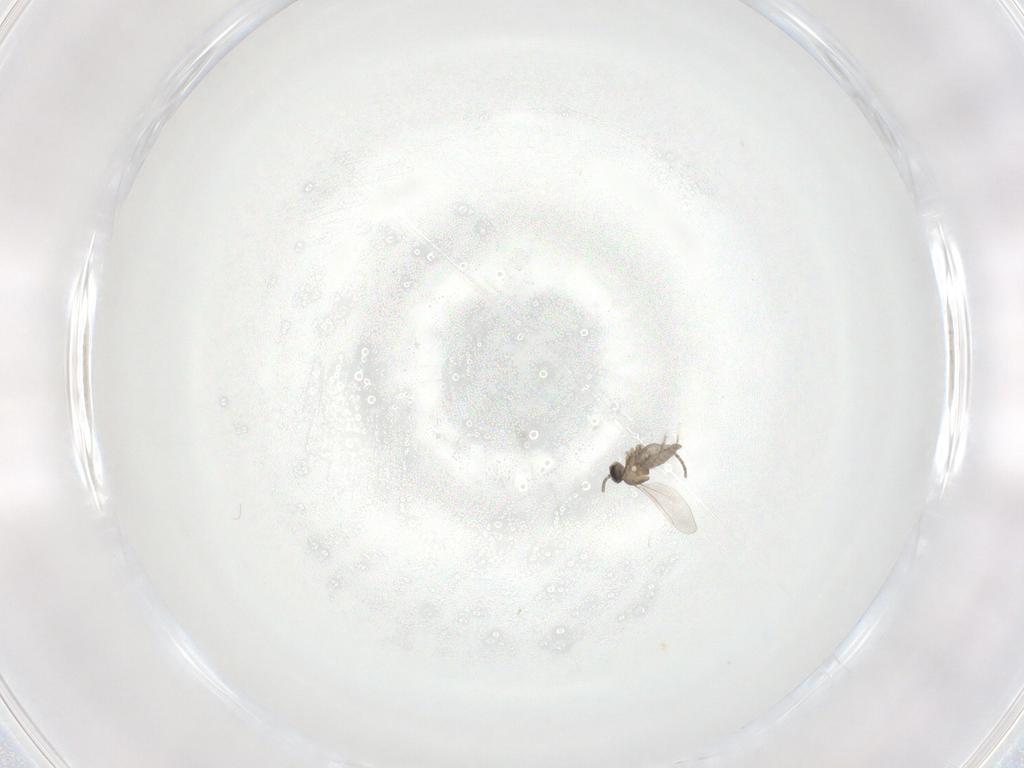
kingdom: Animalia
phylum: Arthropoda
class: Insecta
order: Diptera
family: Cecidomyiidae
